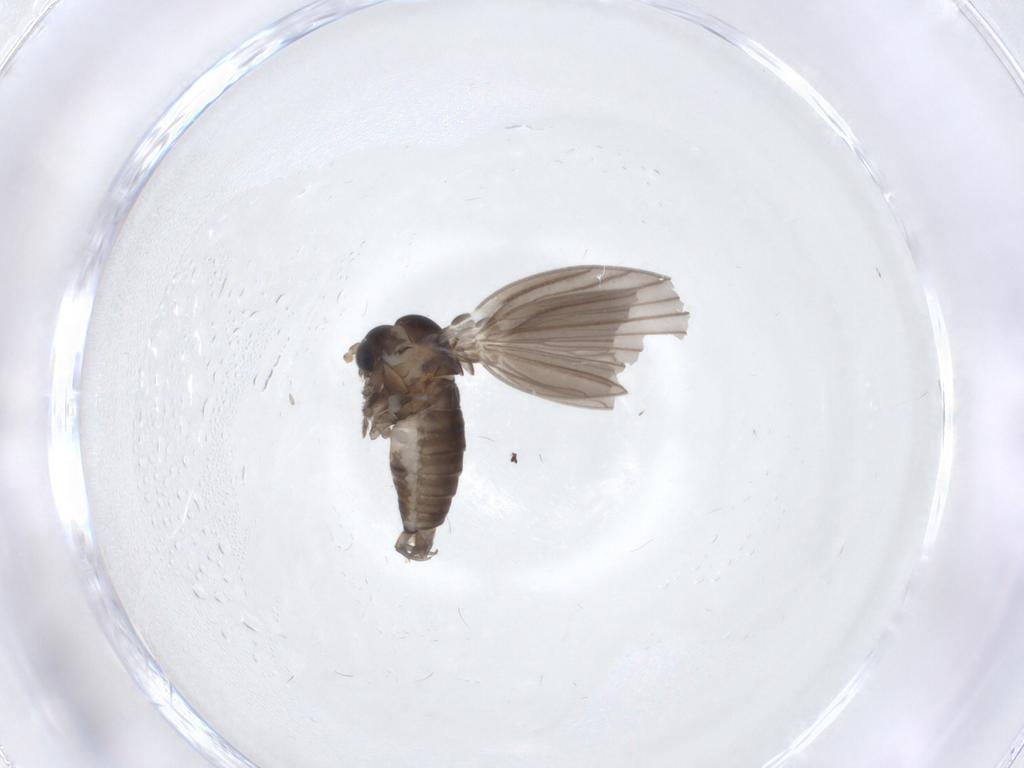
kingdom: Animalia
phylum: Arthropoda
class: Insecta
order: Diptera
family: Psychodidae
